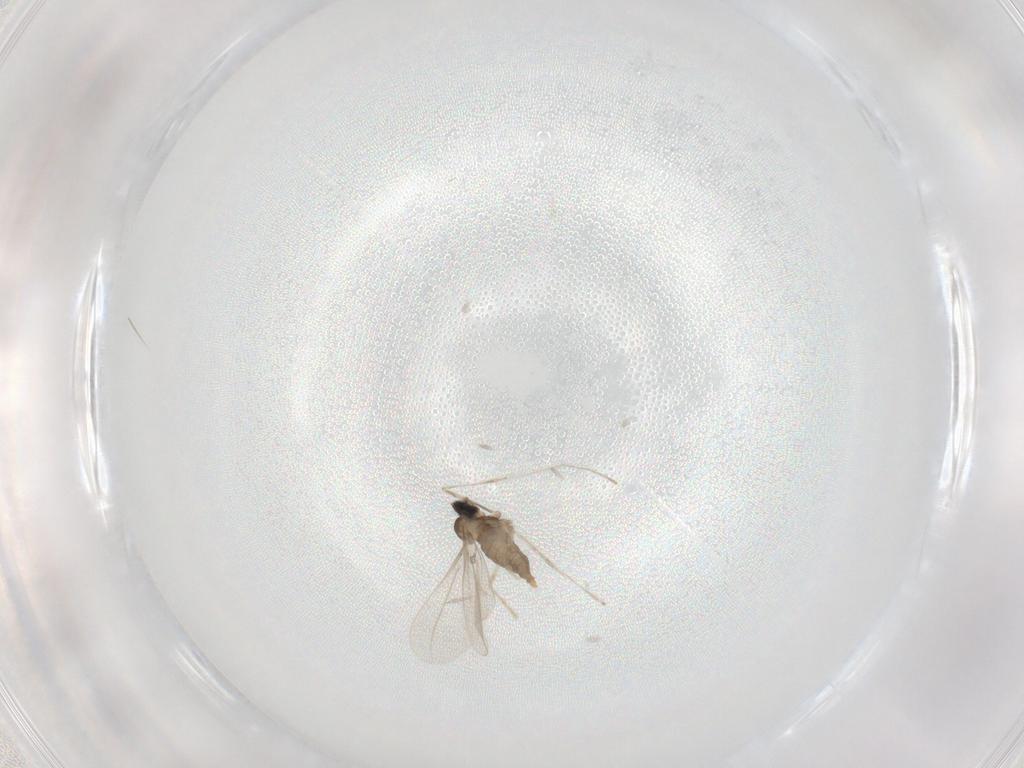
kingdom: Animalia
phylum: Arthropoda
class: Insecta
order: Diptera
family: Cecidomyiidae
